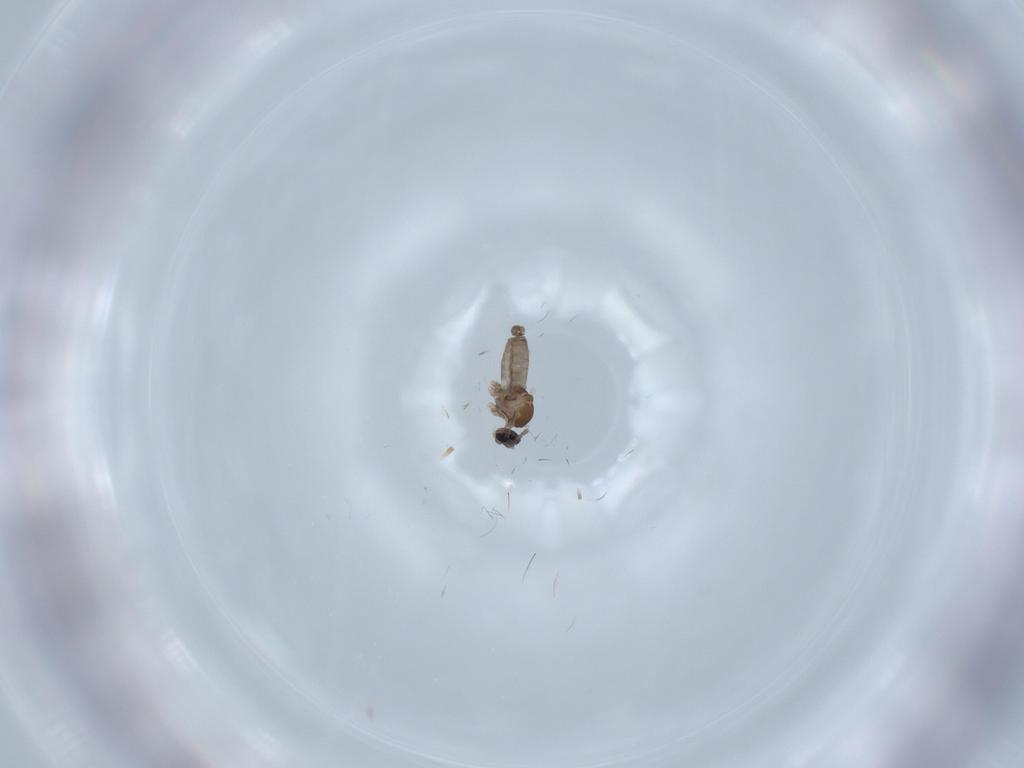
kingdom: Animalia
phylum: Arthropoda
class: Insecta
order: Diptera
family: Cecidomyiidae
